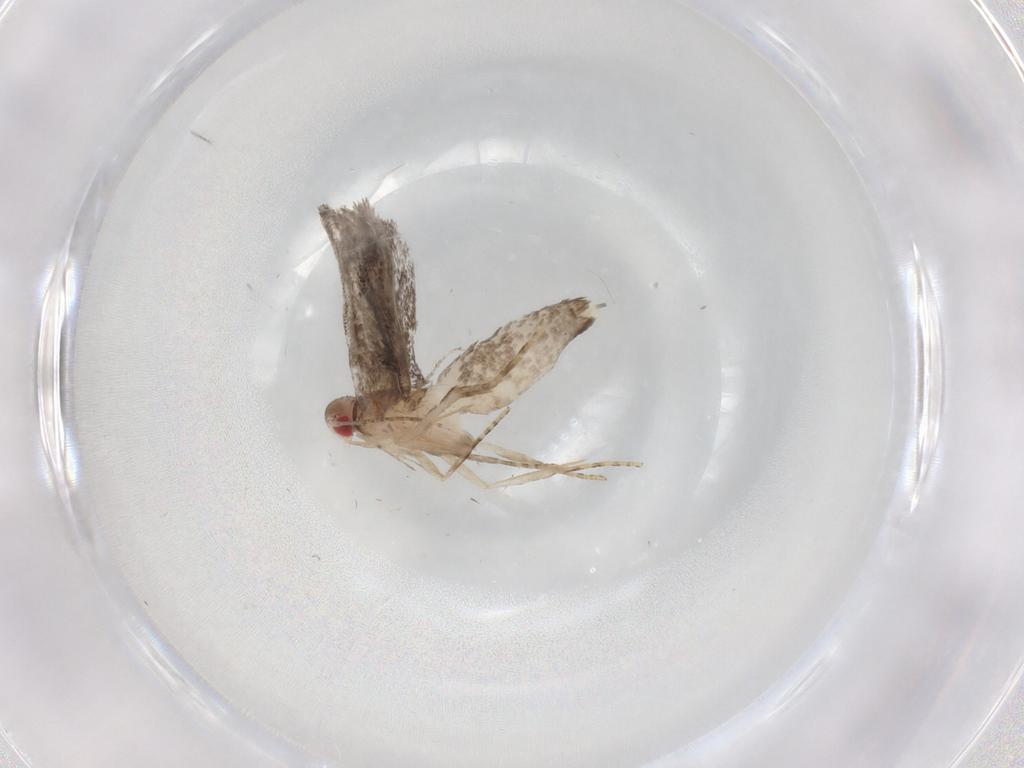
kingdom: Animalia
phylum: Arthropoda
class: Insecta
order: Lepidoptera
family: Gelechiidae
